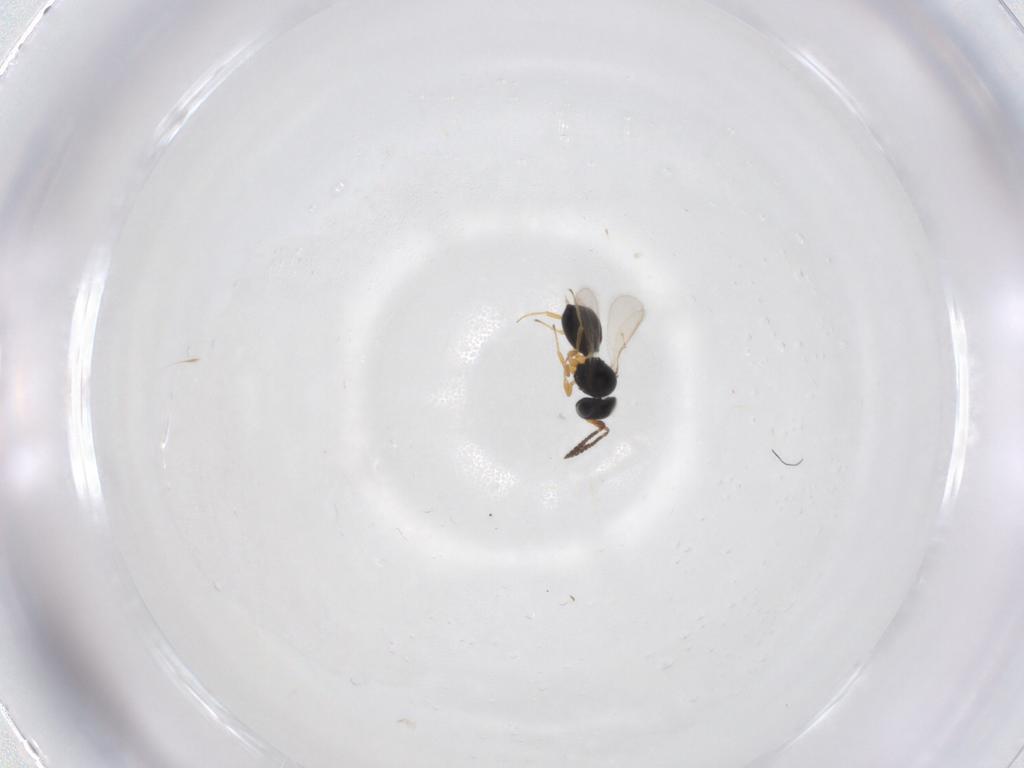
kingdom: Animalia
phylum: Arthropoda
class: Insecta
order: Hymenoptera
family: Scelionidae
